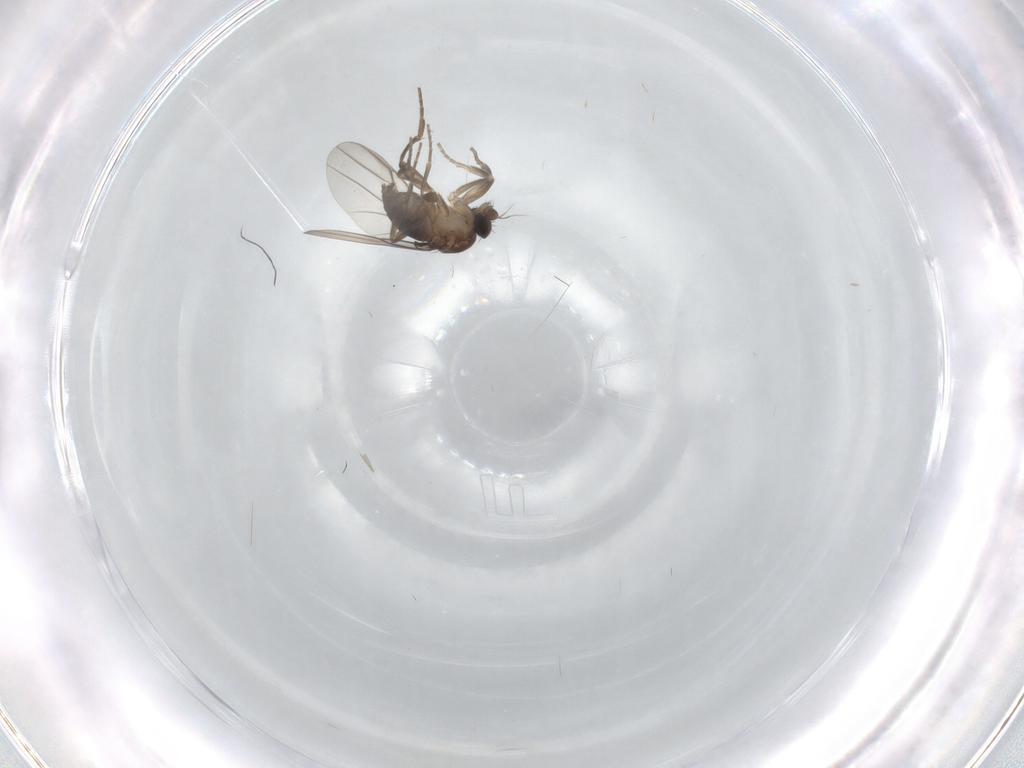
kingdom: Animalia
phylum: Arthropoda
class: Insecta
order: Diptera
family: Phoridae
